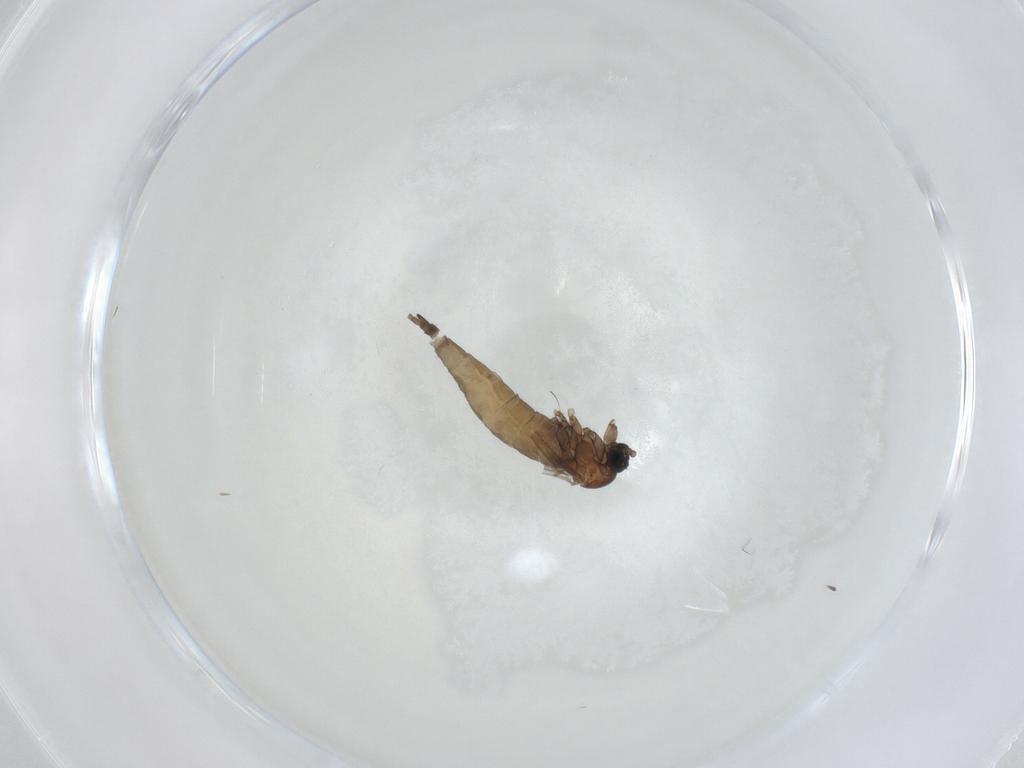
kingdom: Animalia
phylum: Arthropoda
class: Insecta
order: Diptera
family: Sciaridae
